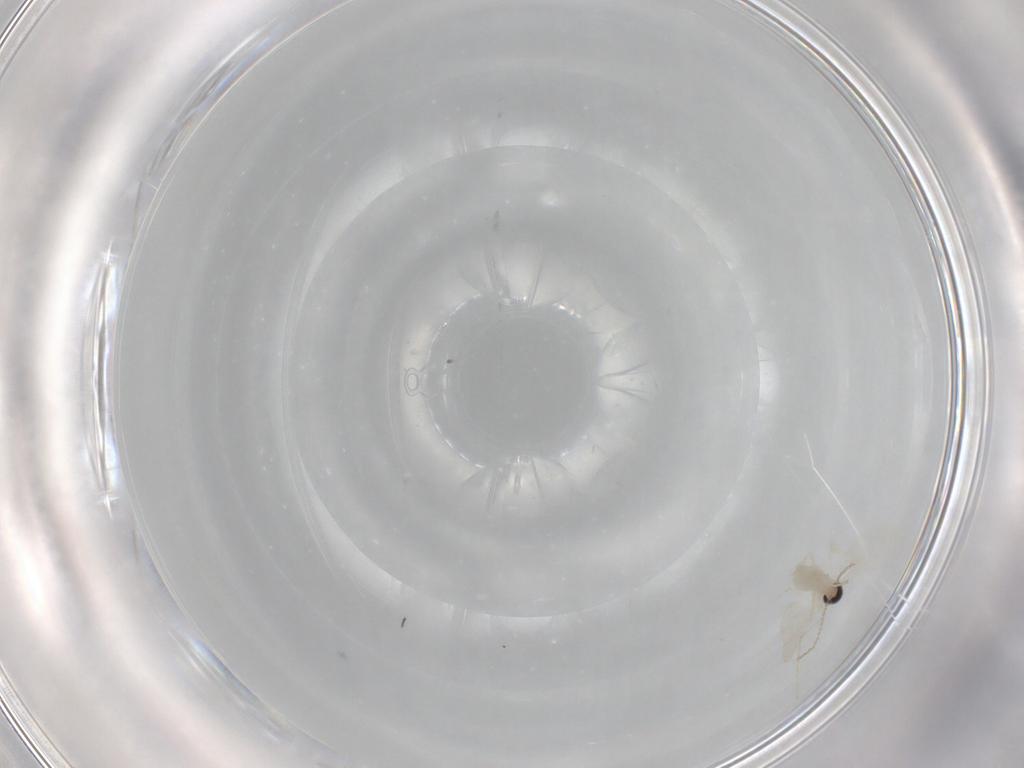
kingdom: Animalia
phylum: Arthropoda
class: Insecta
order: Diptera
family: Cecidomyiidae
